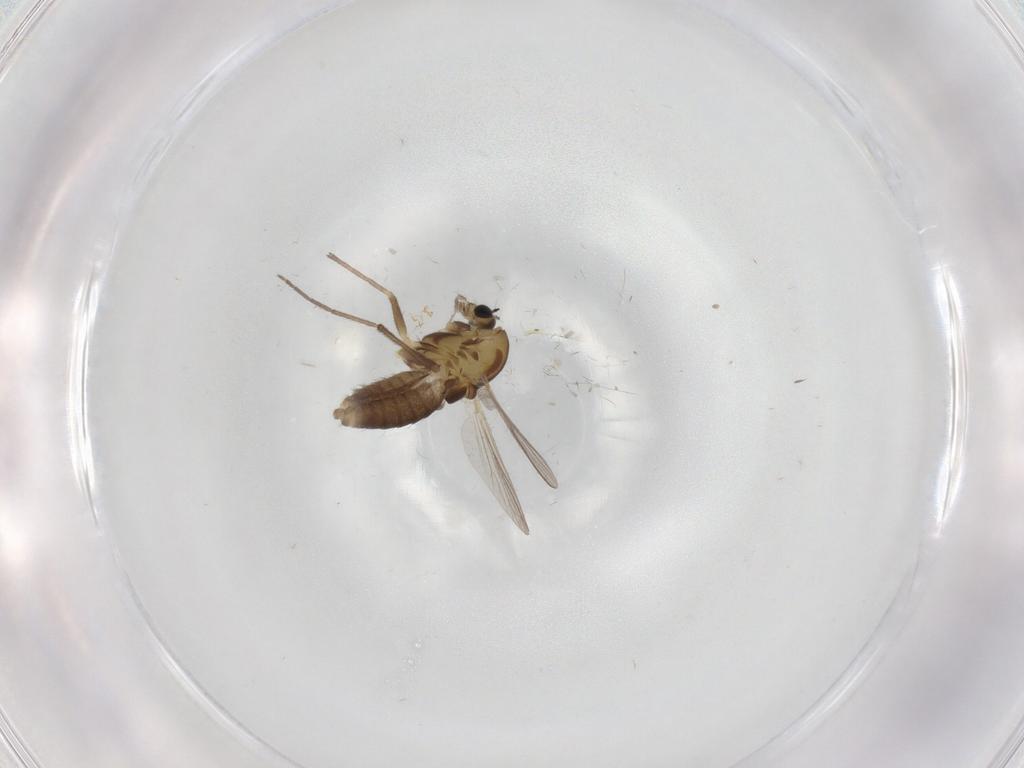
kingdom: Animalia
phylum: Arthropoda
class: Insecta
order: Diptera
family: Chironomidae
